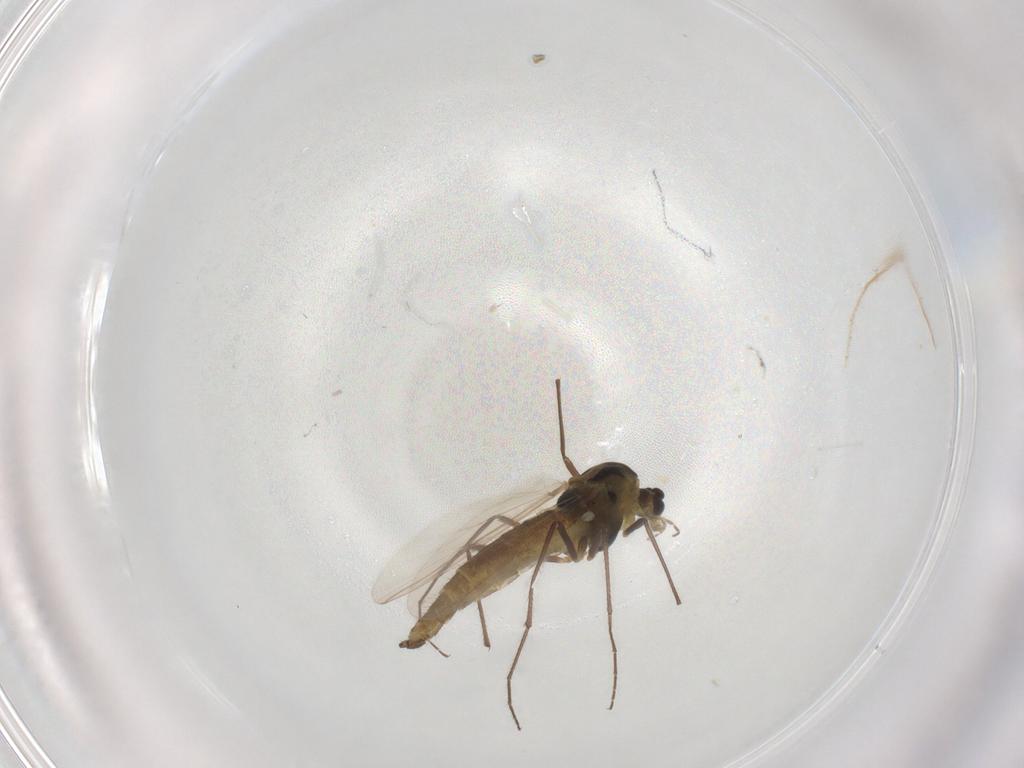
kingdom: Animalia
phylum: Arthropoda
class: Insecta
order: Diptera
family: Chironomidae
